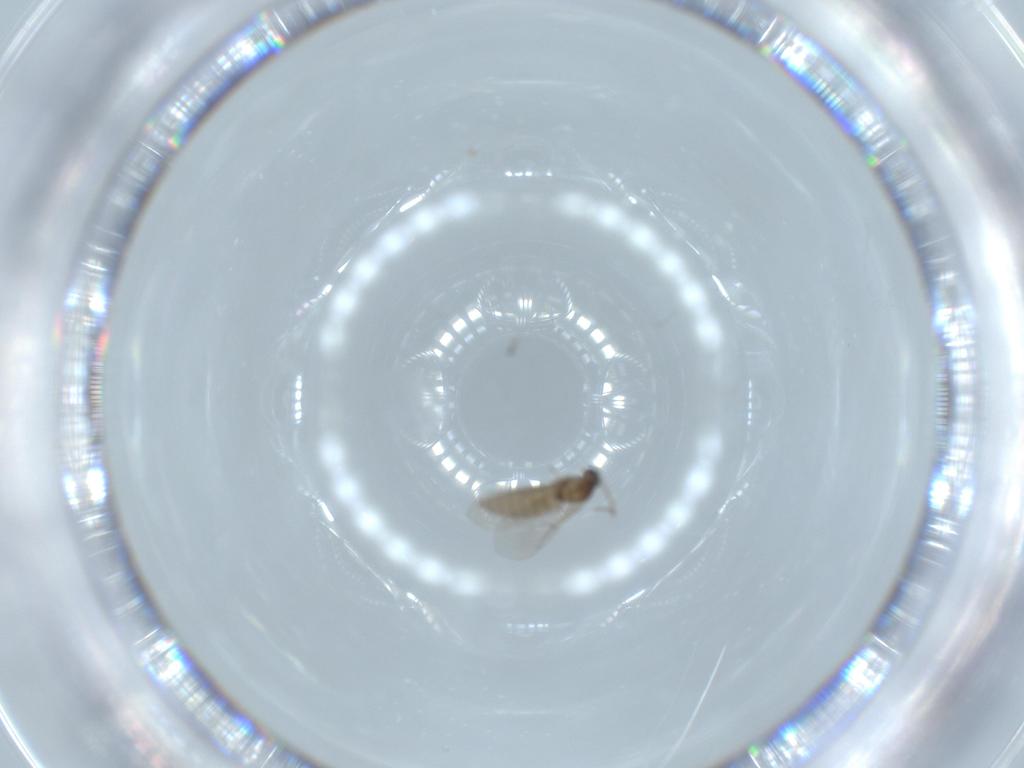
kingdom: Animalia
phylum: Arthropoda
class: Insecta
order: Diptera
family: Cecidomyiidae
